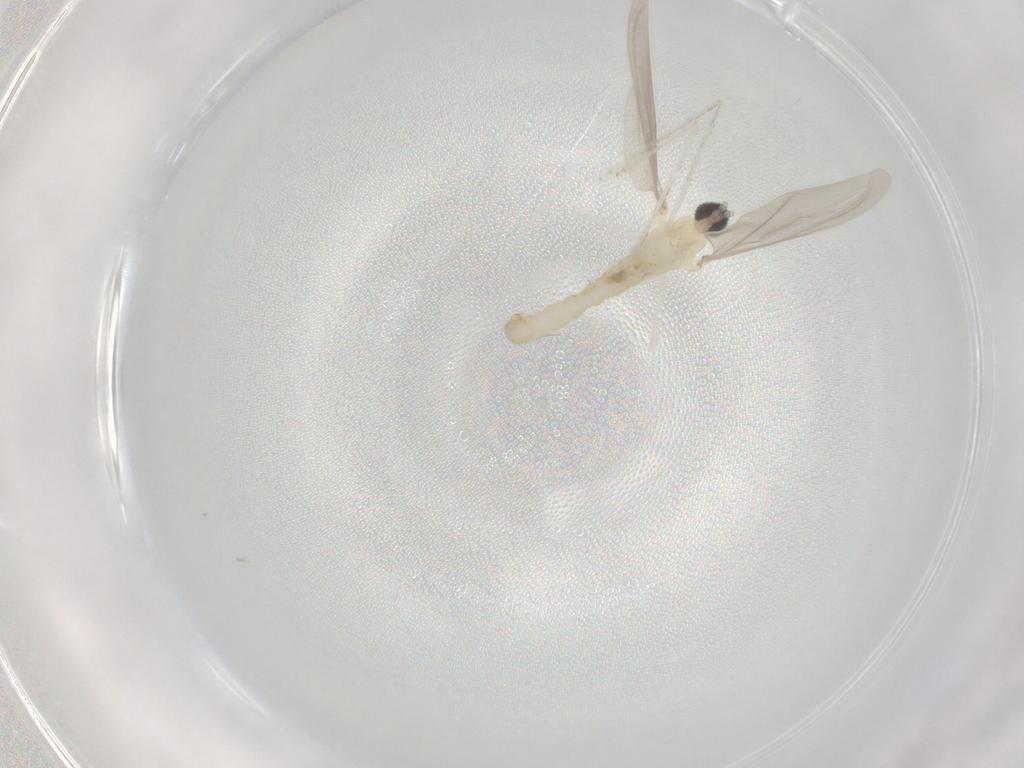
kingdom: Animalia
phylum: Arthropoda
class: Insecta
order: Diptera
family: Cecidomyiidae
